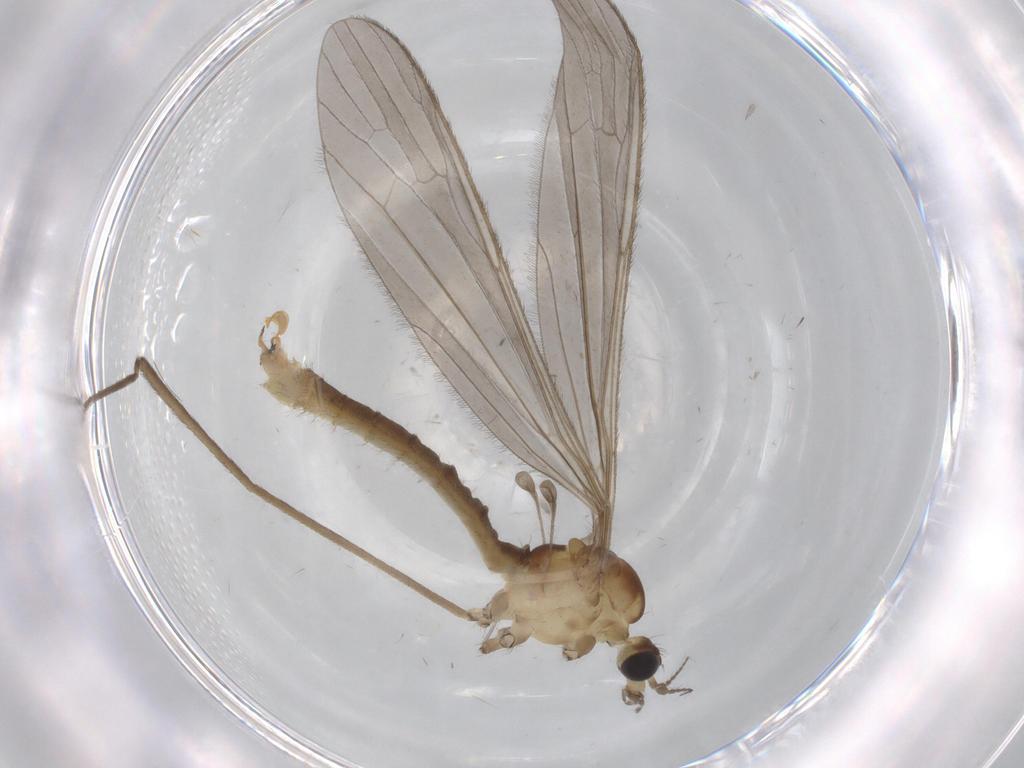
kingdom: Animalia
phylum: Arthropoda
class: Insecta
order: Diptera
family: Limoniidae
